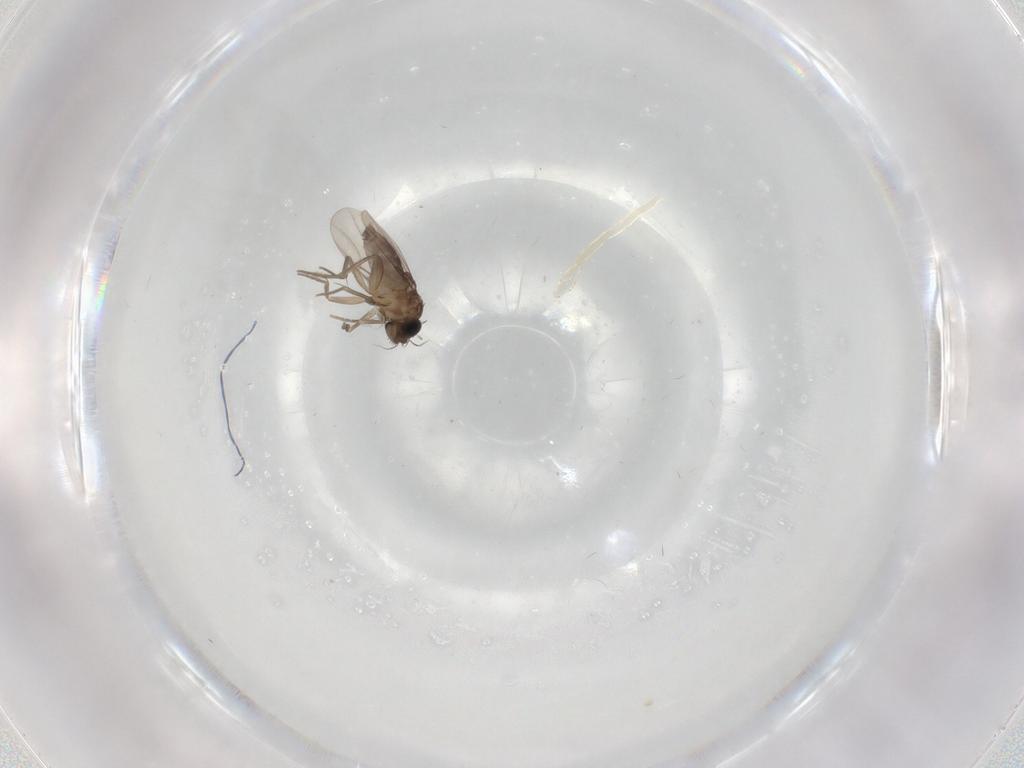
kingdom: Animalia
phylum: Arthropoda
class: Insecta
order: Diptera
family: Phoridae
